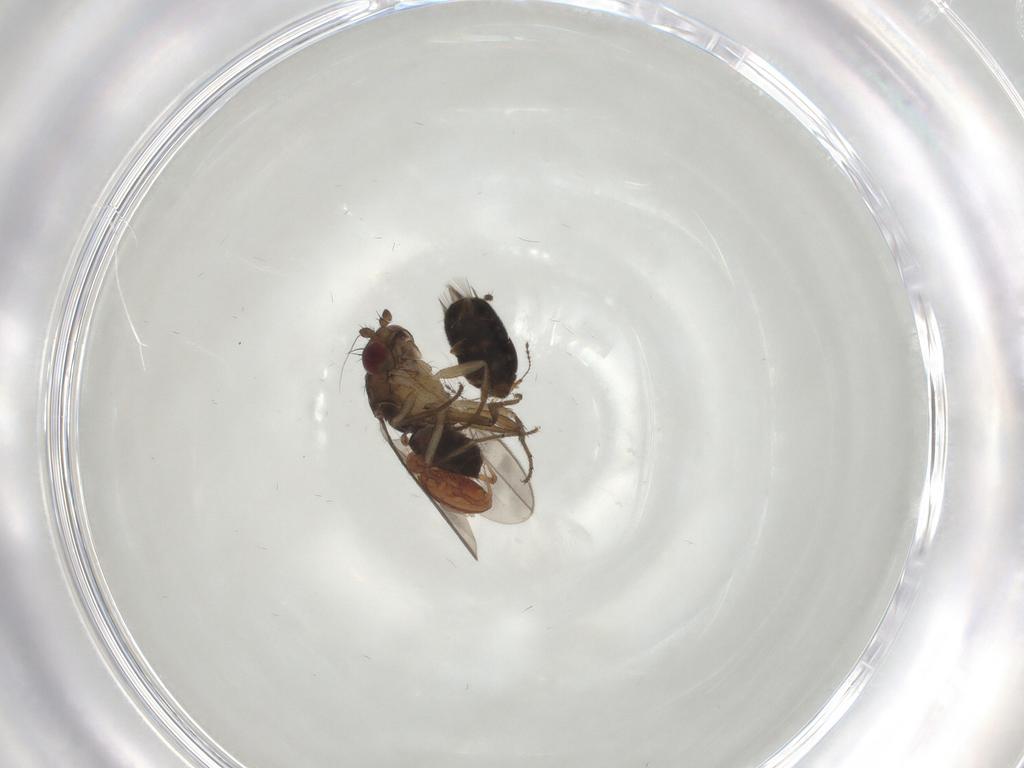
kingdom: Animalia
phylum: Arthropoda
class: Insecta
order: Diptera
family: Sphaeroceridae
